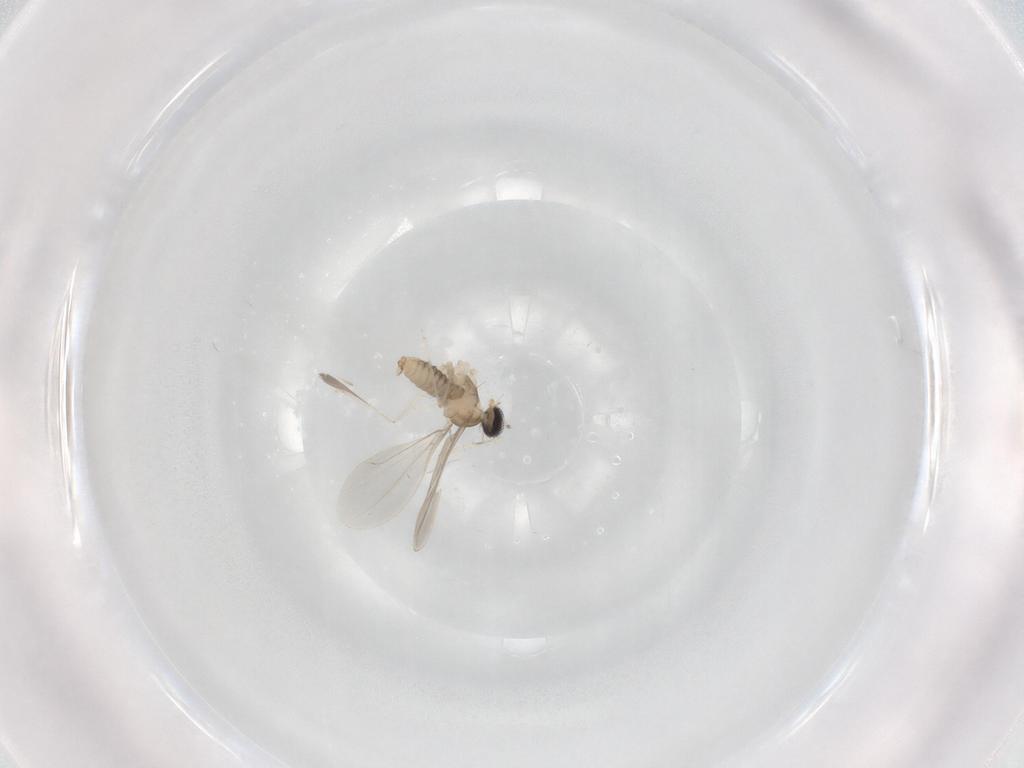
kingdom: Animalia
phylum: Arthropoda
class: Insecta
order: Diptera
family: Cecidomyiidae
